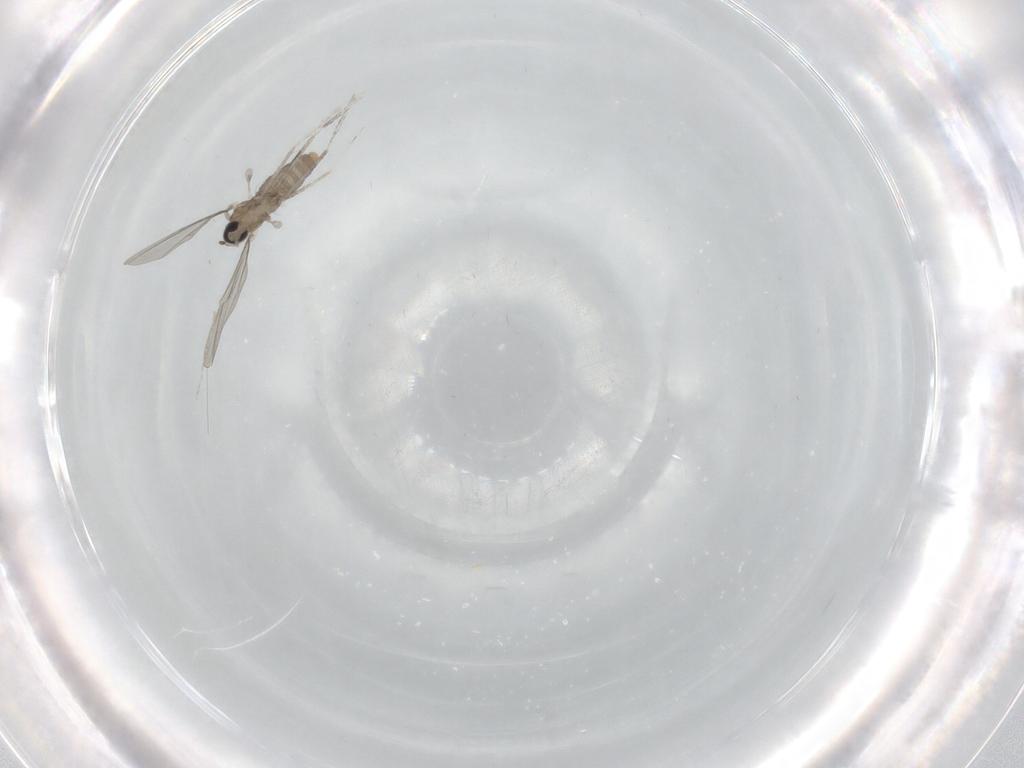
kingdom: Animalia
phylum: Arthropoda
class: Insecta
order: Diptera
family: Cecidomyiidae
